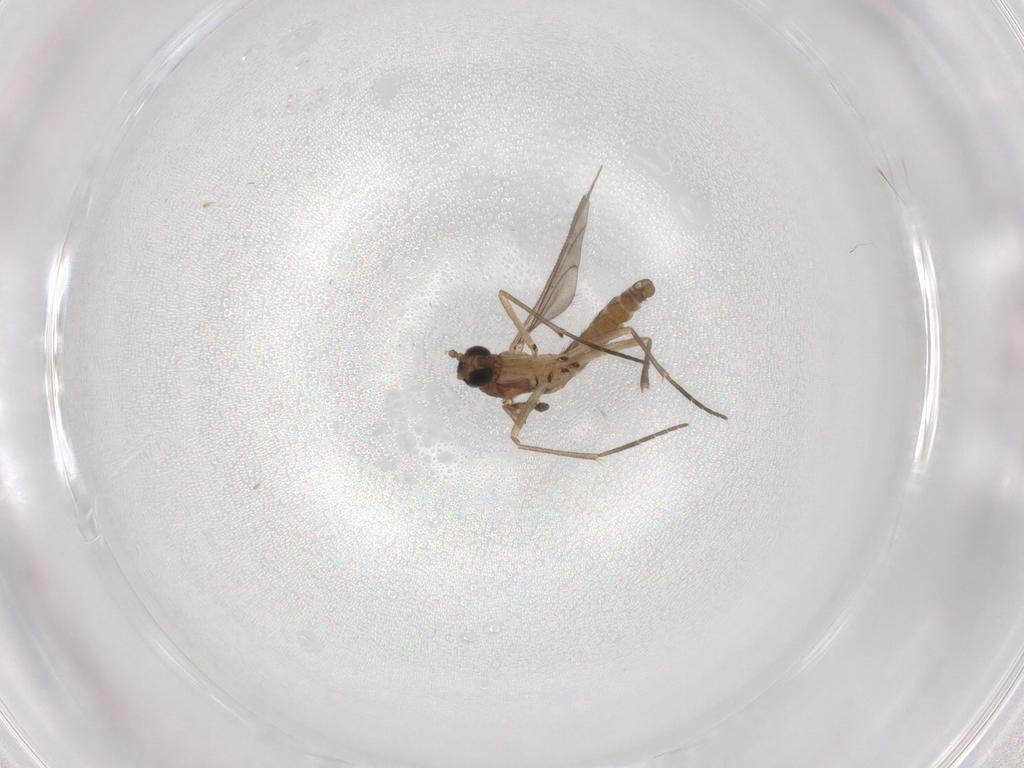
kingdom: Animalia
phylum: Arthropoda
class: Insecta
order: Diptera
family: Sciaridae
